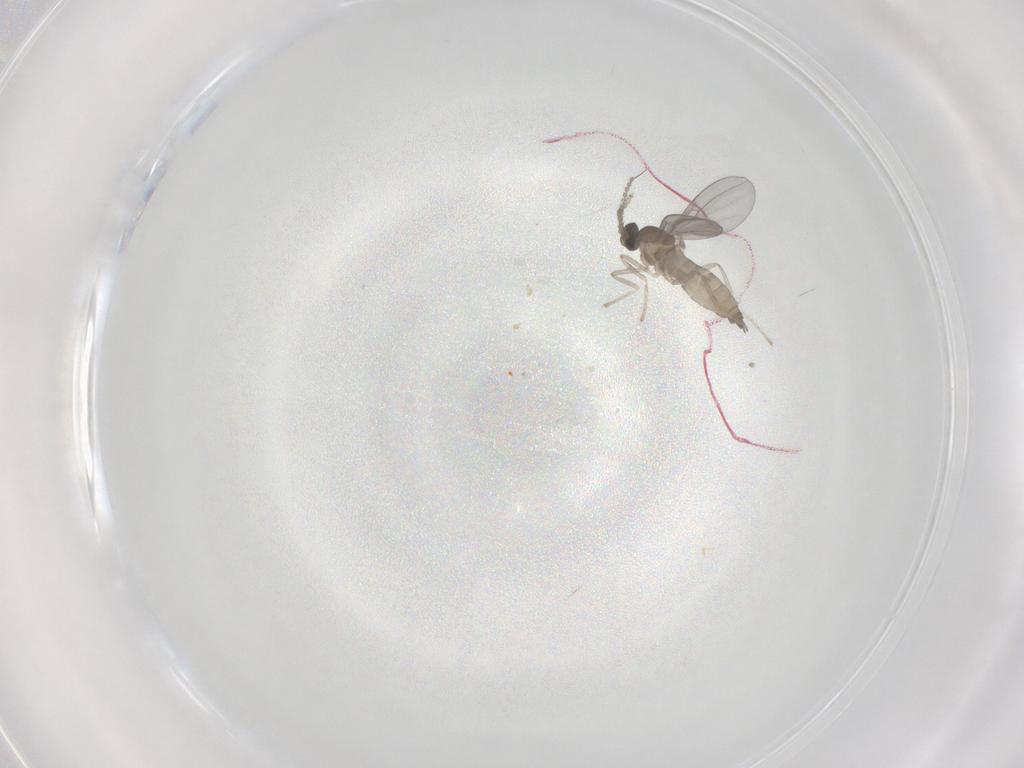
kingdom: Animalia
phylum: Arthropoda
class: Insecta
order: Diptera
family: Cecidomyiidae
